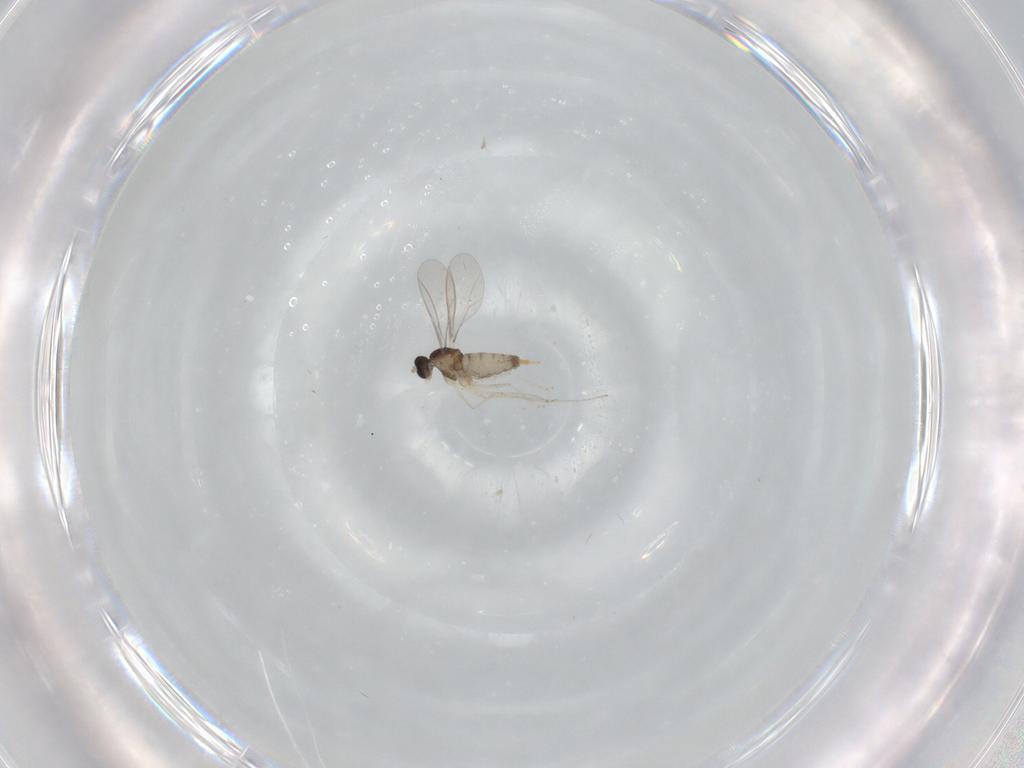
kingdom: Animalia
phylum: Arthropoda
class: Insecta
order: Diptera
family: Cecidomyiidae
